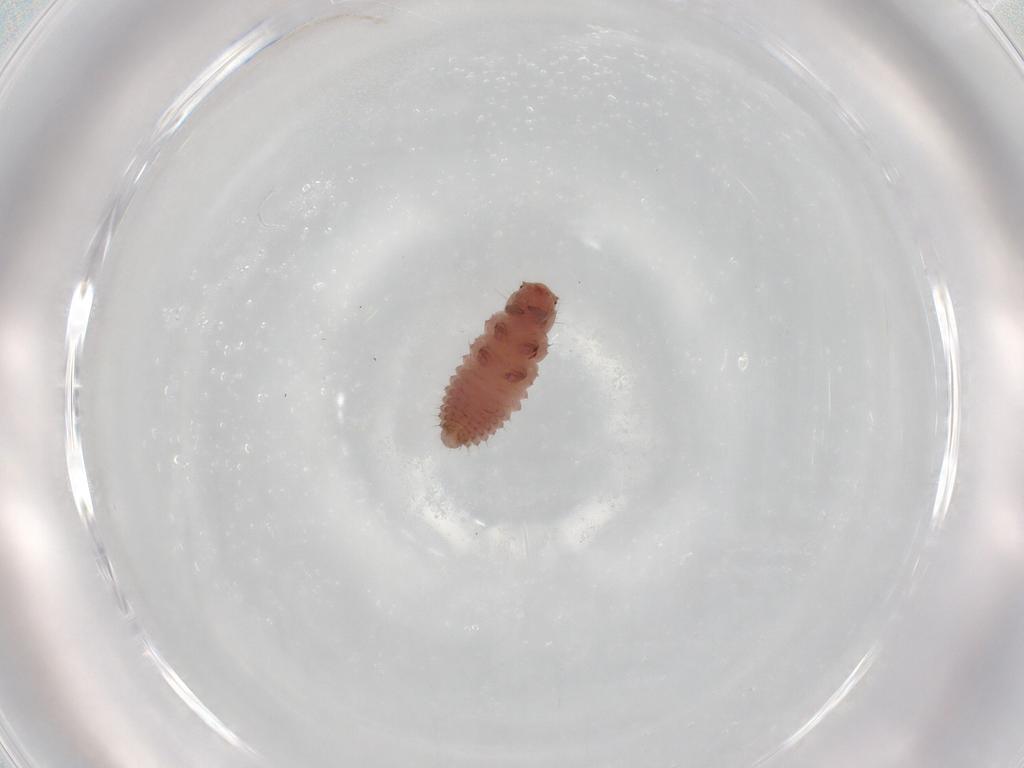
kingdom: Animalia
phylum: Arthropoda
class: Insecta
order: Coleoptera
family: Coccinellidae
